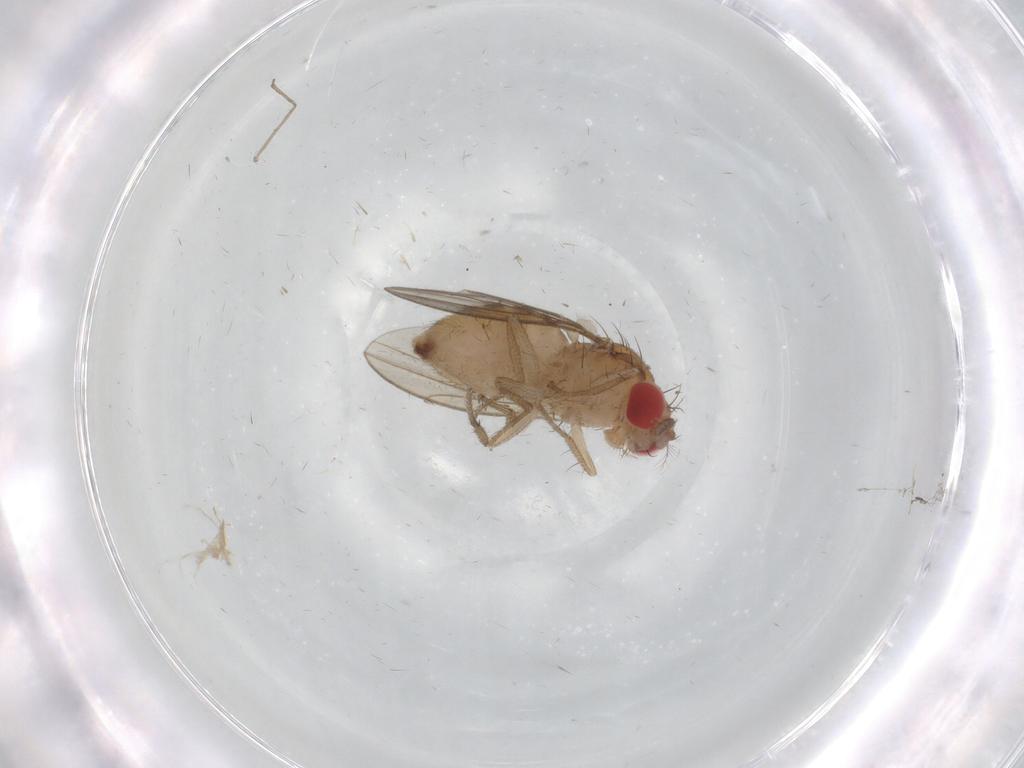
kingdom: Animalia
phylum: Arthropoda
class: Insecta
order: Diptera
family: Drosophilidae
